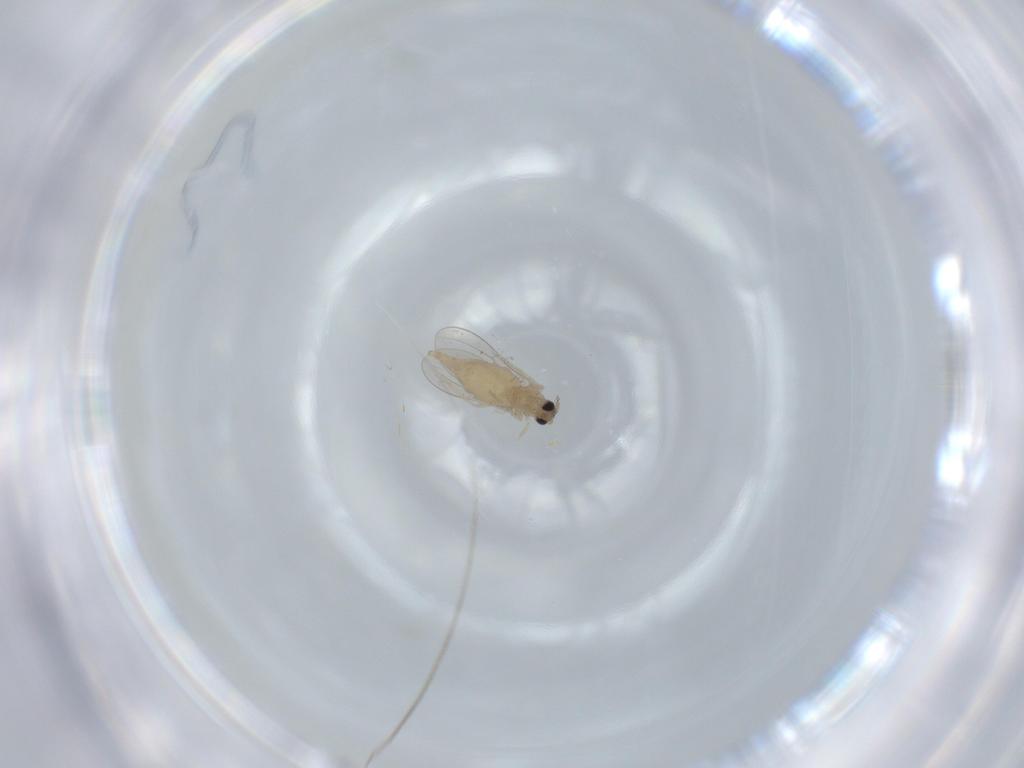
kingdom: Animalia
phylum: Arthropoda
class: Insecta
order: Diptera
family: Cecidomyiidae
